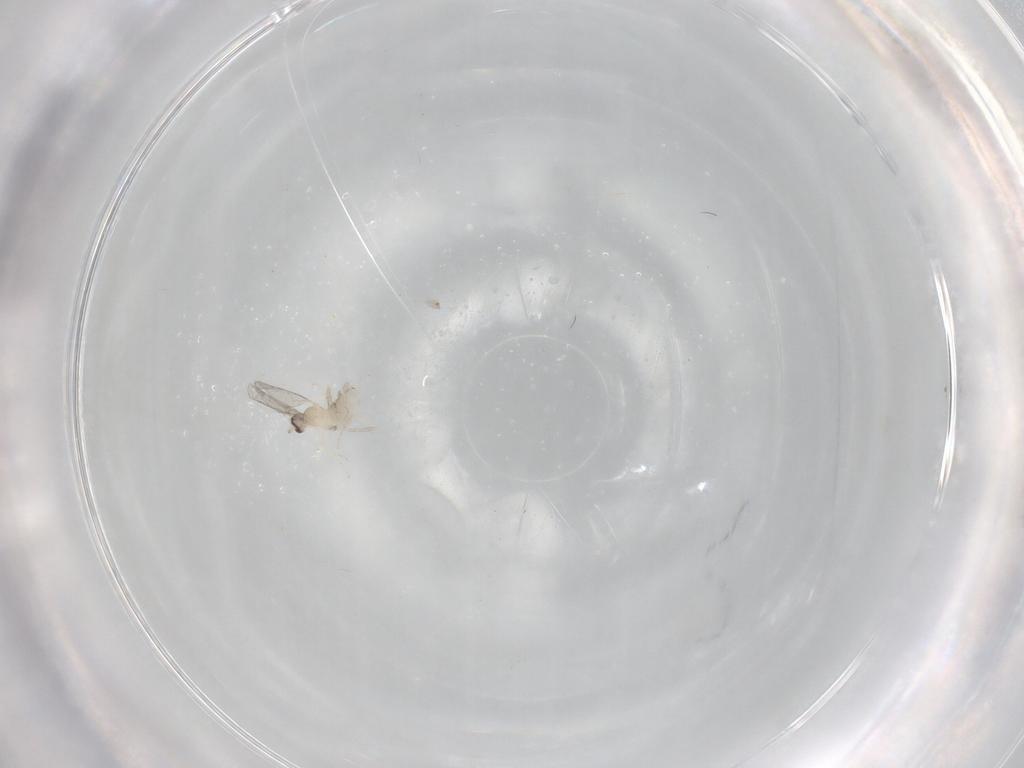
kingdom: Animalia
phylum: Arthropoda
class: Insecta
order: Diptera
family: Cecidomyiidae
